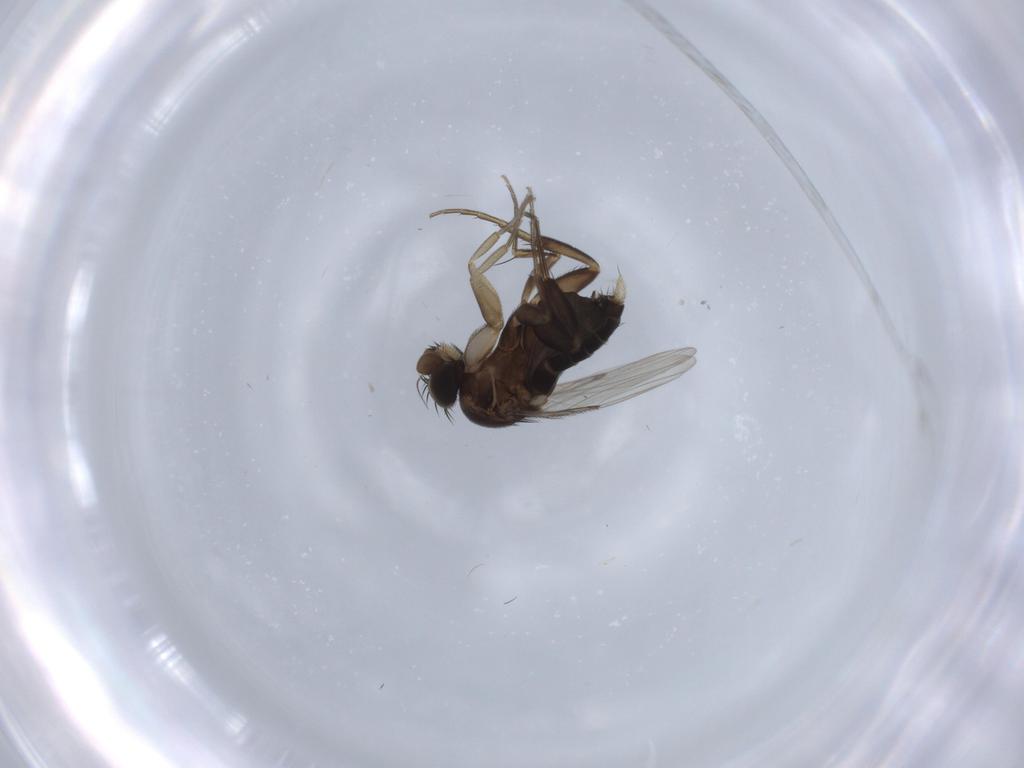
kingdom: Animalia
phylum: Arthropoda
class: Insecta
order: Diptera
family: Phoridae
